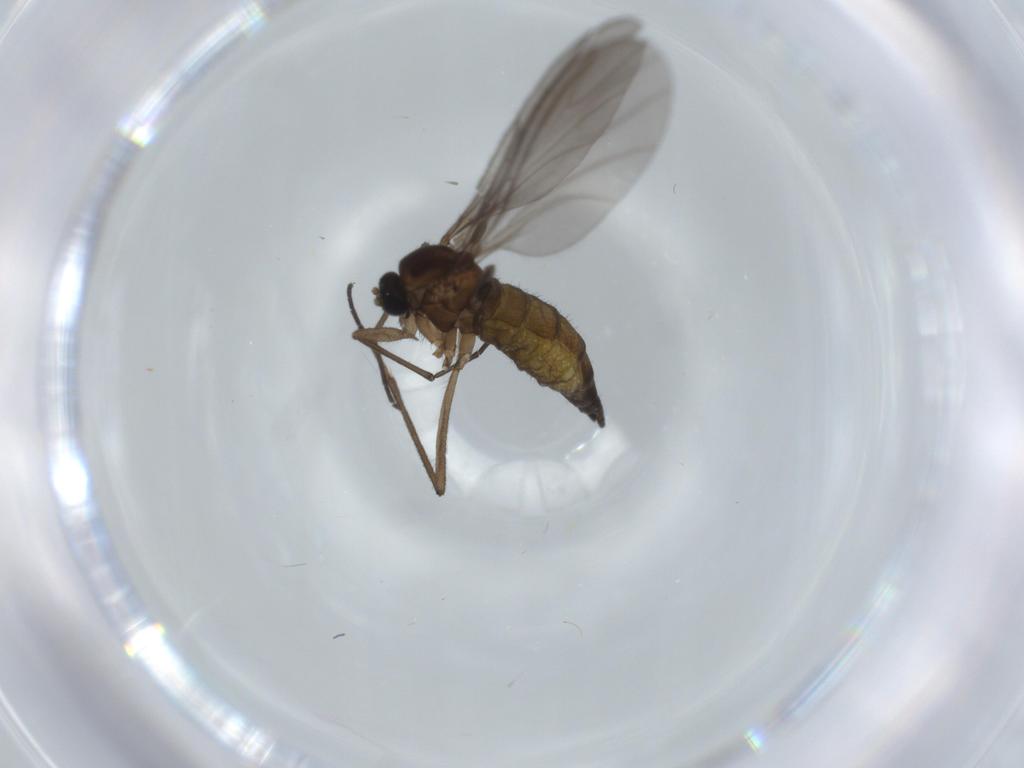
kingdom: Animalia
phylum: Arthropoda
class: Insecta
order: Diptera
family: Sciaridae
